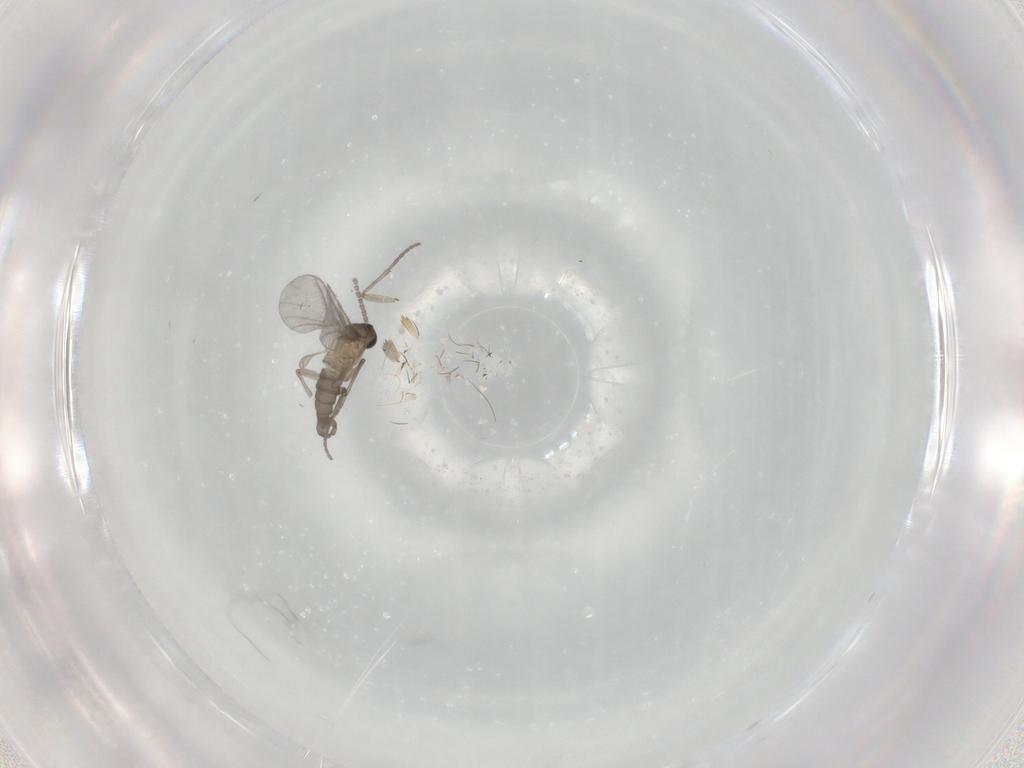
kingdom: Animalia
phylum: Arthropoda
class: Insecta
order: Diptera
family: Sciaridae
